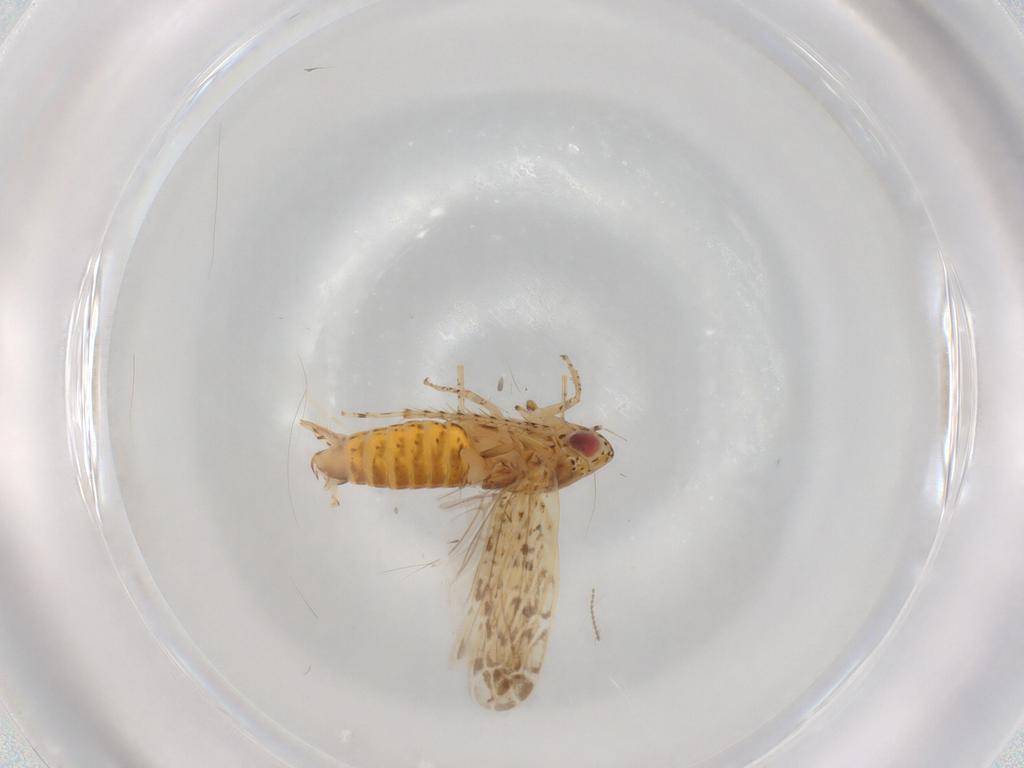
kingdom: Animalia
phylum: Arthropoda
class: Insecta
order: Hemiptera
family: Cicadellidae
